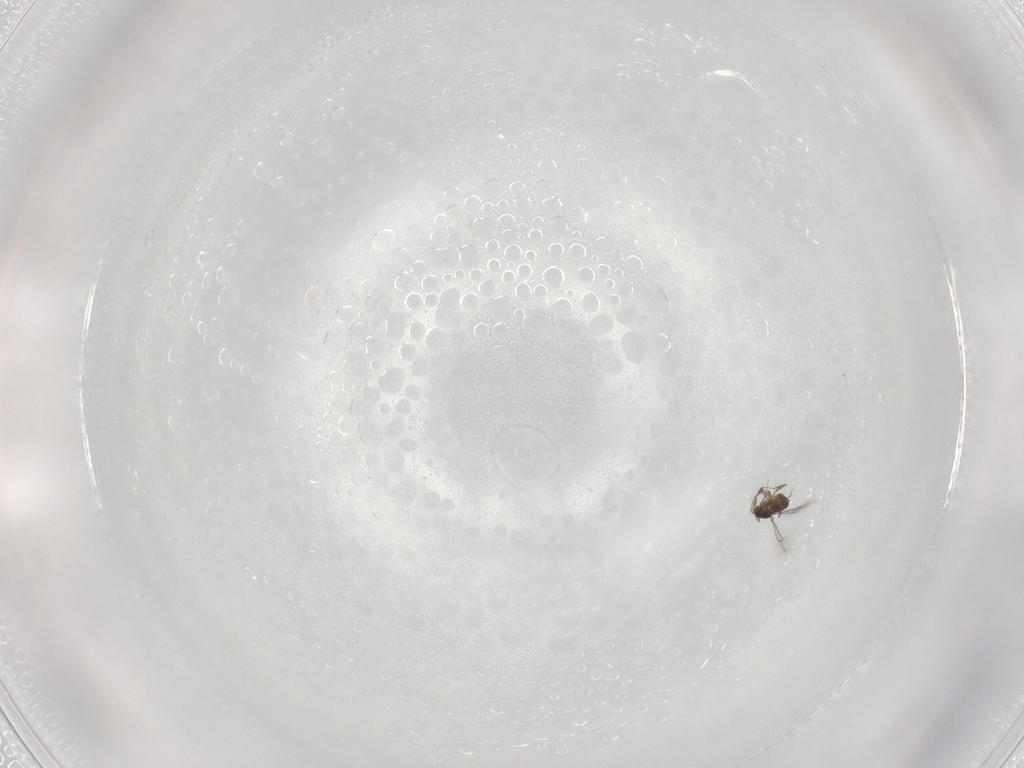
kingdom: Animalia
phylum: Arthropoda
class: Insecta
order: Hymenoptera
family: Mymaridae
